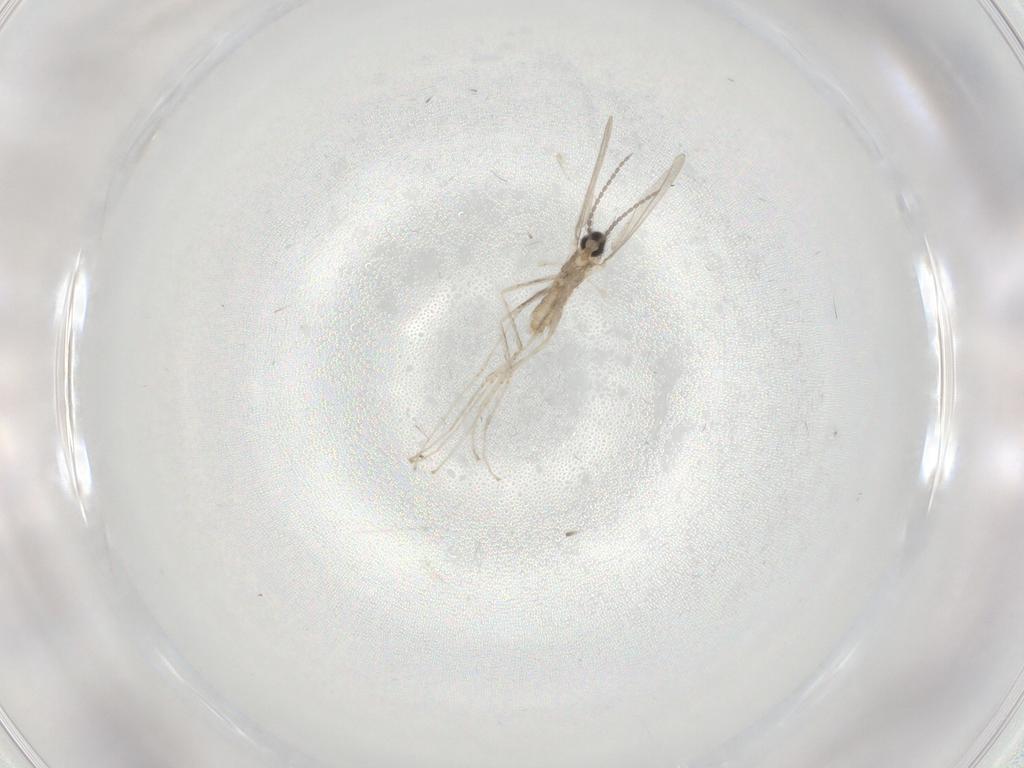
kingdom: Animalia
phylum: Arthropoda
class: Insecta
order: Diptera
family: Cecidomyiidae
